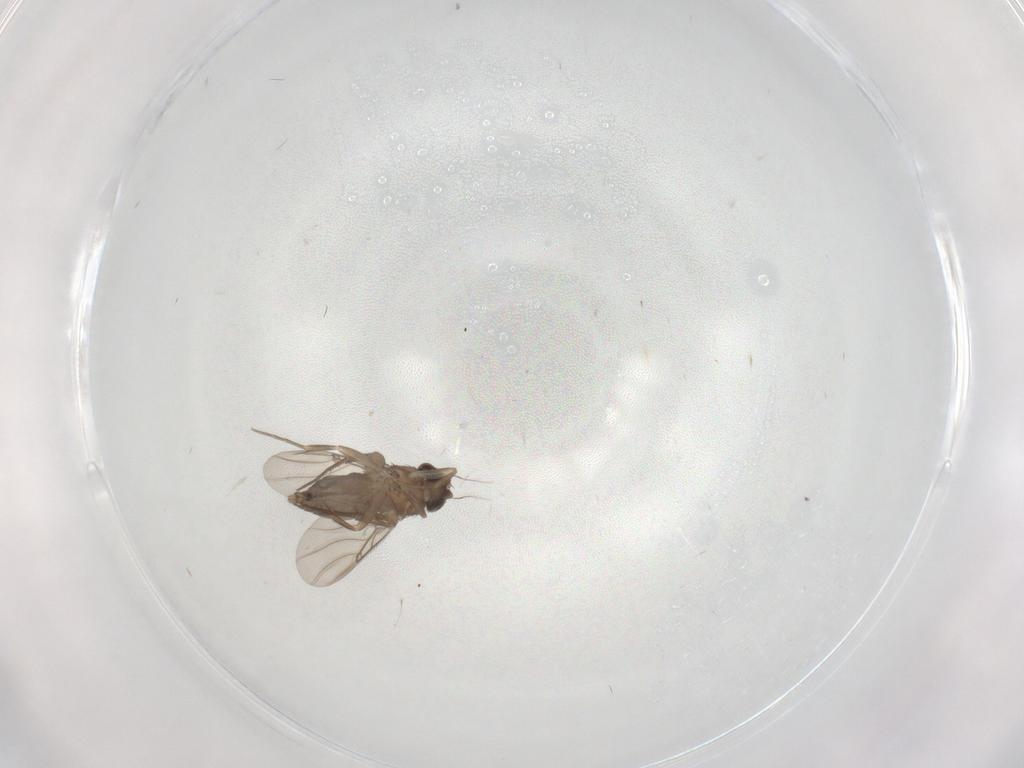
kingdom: Animalia
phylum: Arthropoda
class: Insecta
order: Diptera
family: Phoridae
